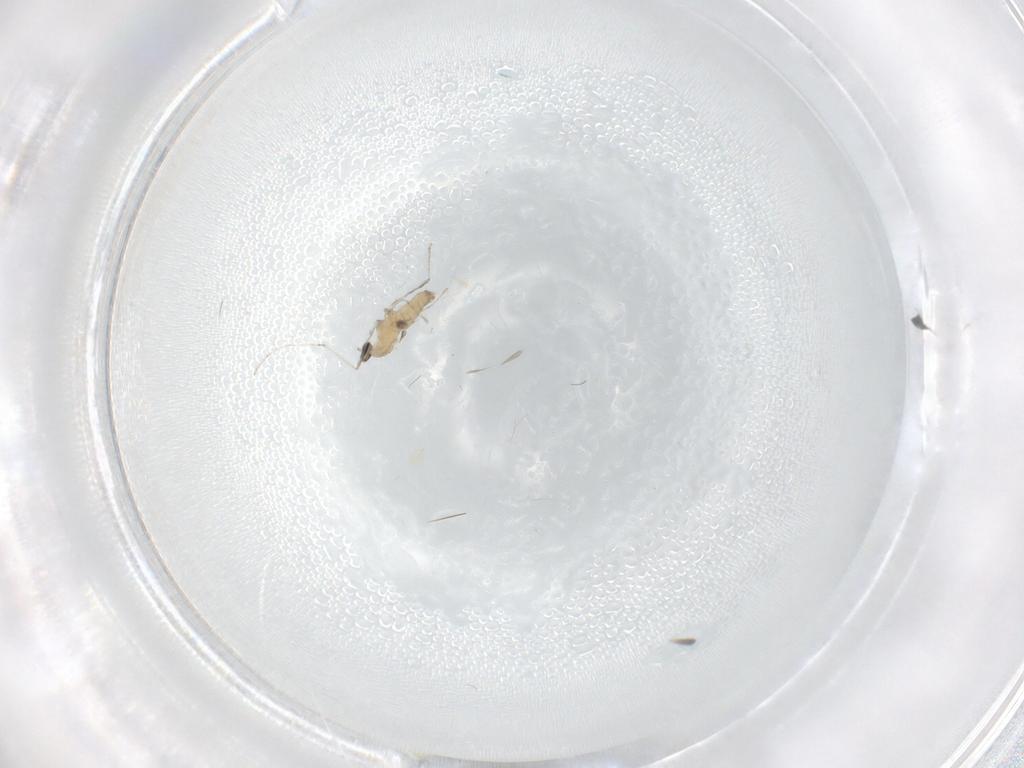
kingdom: Animalia
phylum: Arthropoda
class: Insecta
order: Diptera
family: Cecidomyiidae
